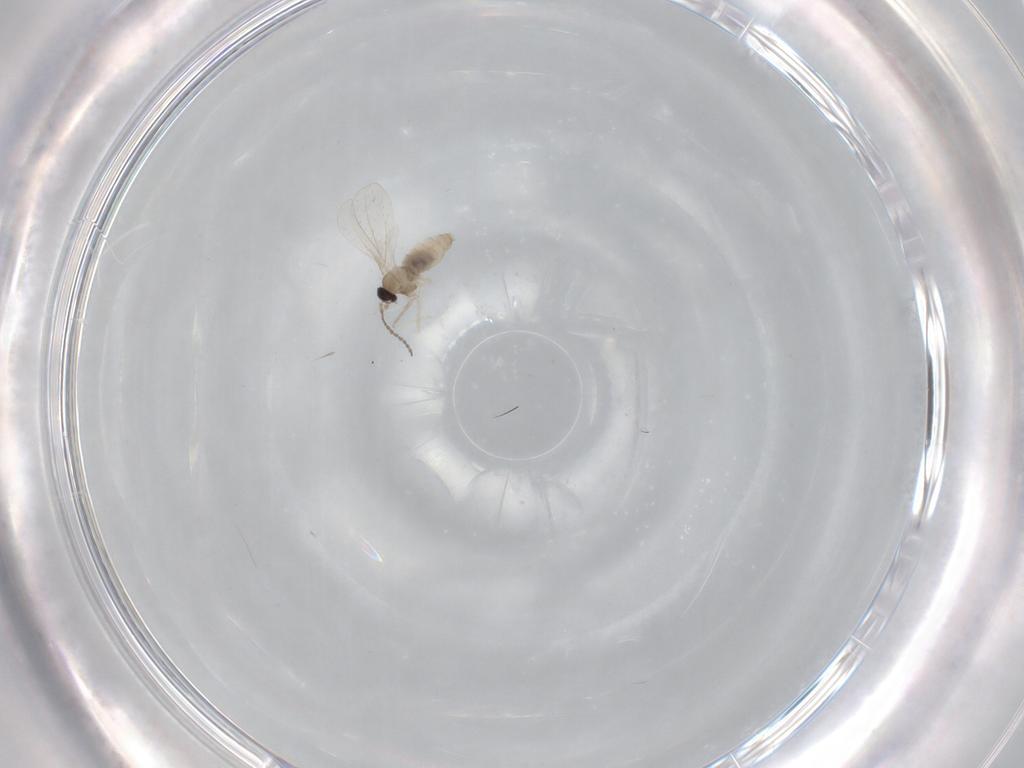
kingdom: Animalia
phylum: Arthropoda
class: Insecta
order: Diptera
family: Cecidomyiidae
